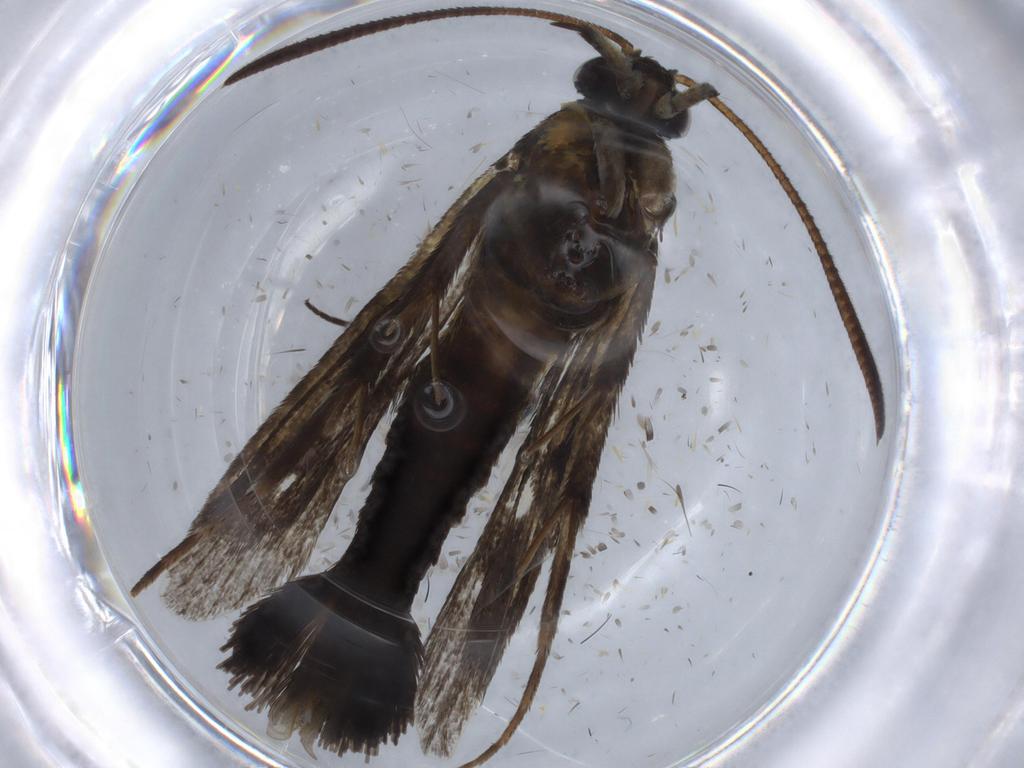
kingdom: Animalia
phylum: Arthropoda
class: Insecta
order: Lepidoptera
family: Sesiidae
